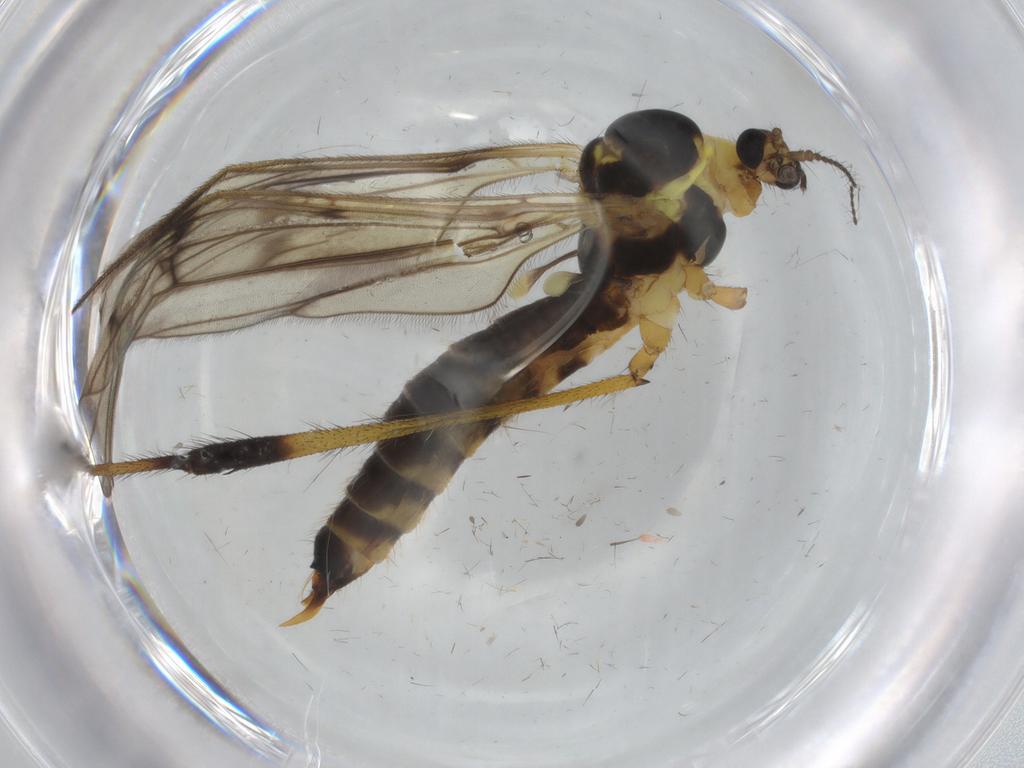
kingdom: Animalia
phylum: Arthropoda
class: Insecta
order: Diptera
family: Limoniidae
